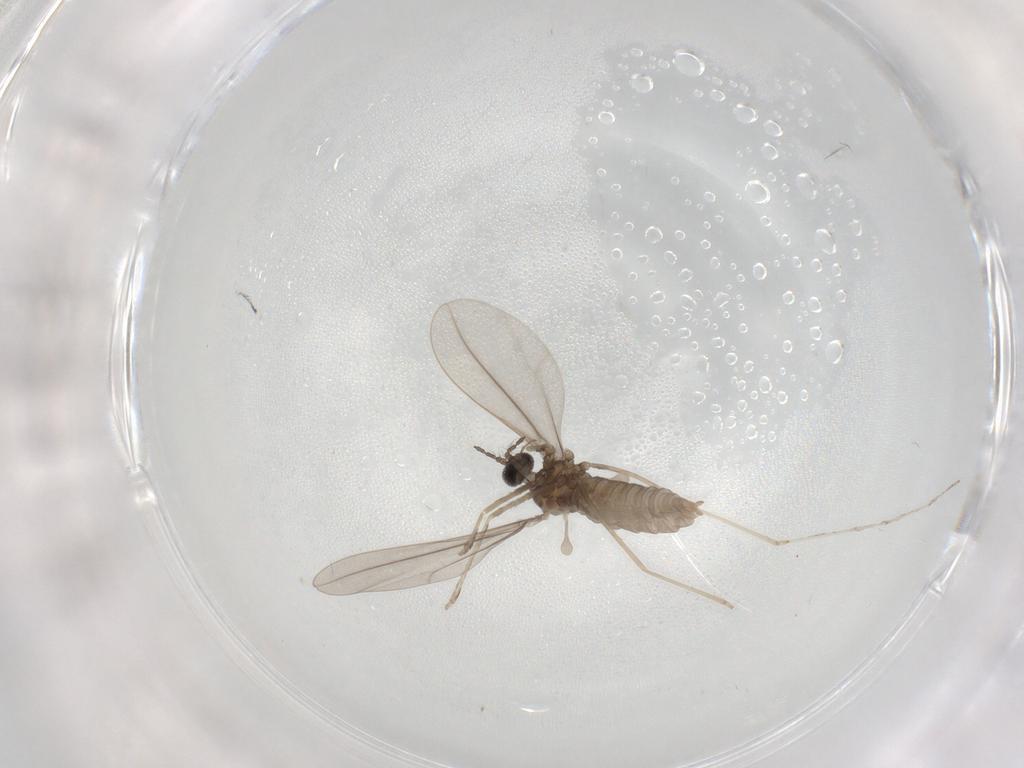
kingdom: Animalia
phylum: Arthropoda
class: Insecta
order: Diptera
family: Cecidomyiidae
